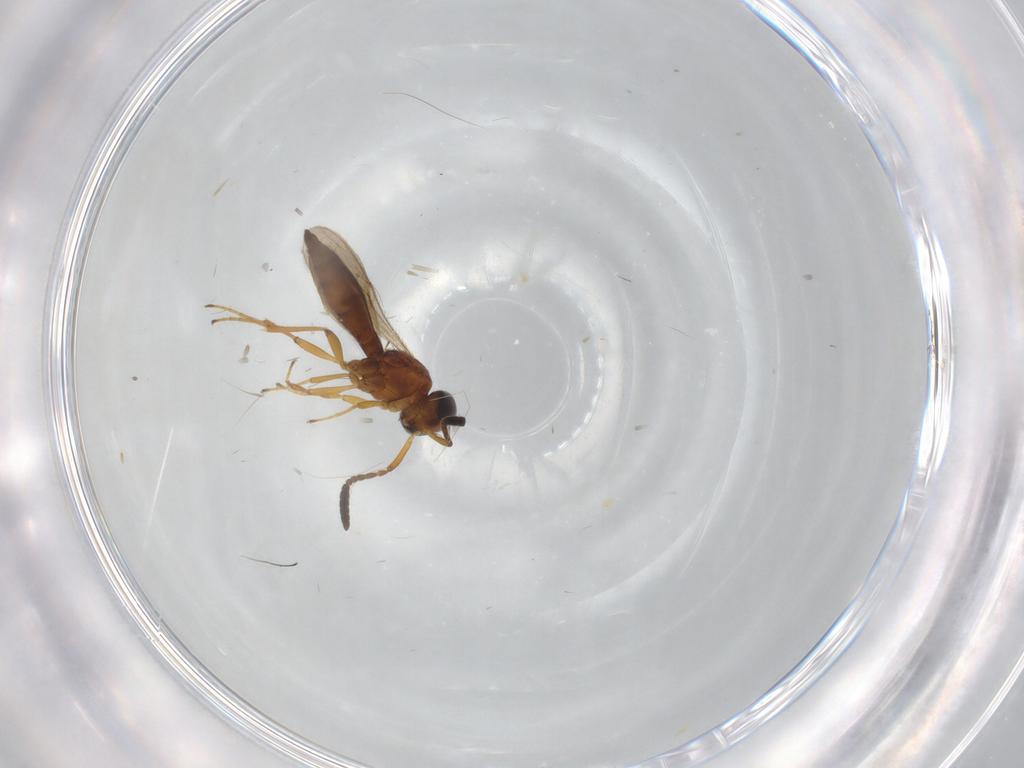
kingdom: Animalia
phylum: Arthropoda
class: Insecta
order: Hymenoptera
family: Scelionidae
